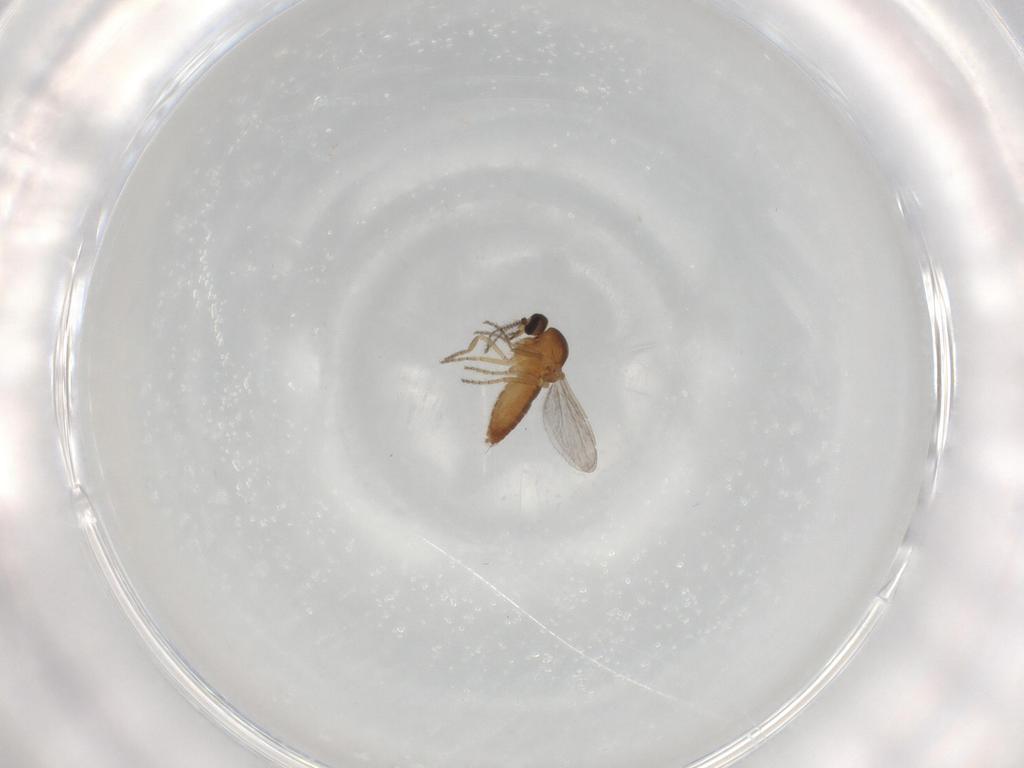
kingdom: Animalia
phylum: Arthropoda
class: Insecta
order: Diptera
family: Ceratopogonidae
